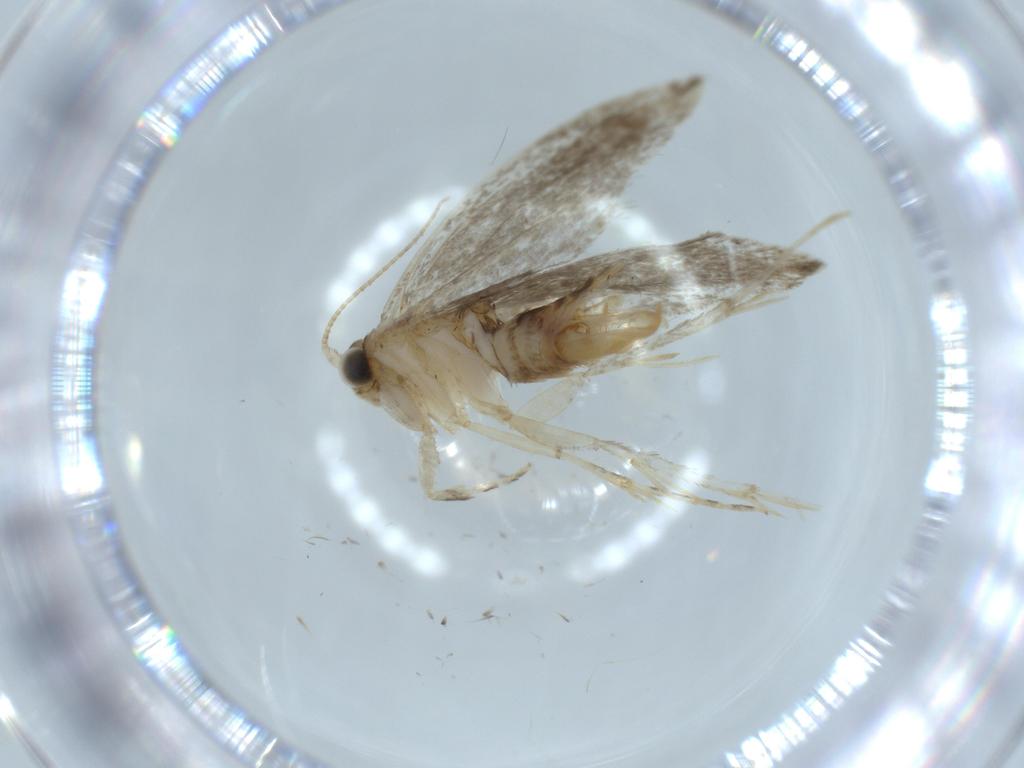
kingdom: Animalia
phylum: Arthropoda
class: Insecta
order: Lepidoptera
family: Tineidae
